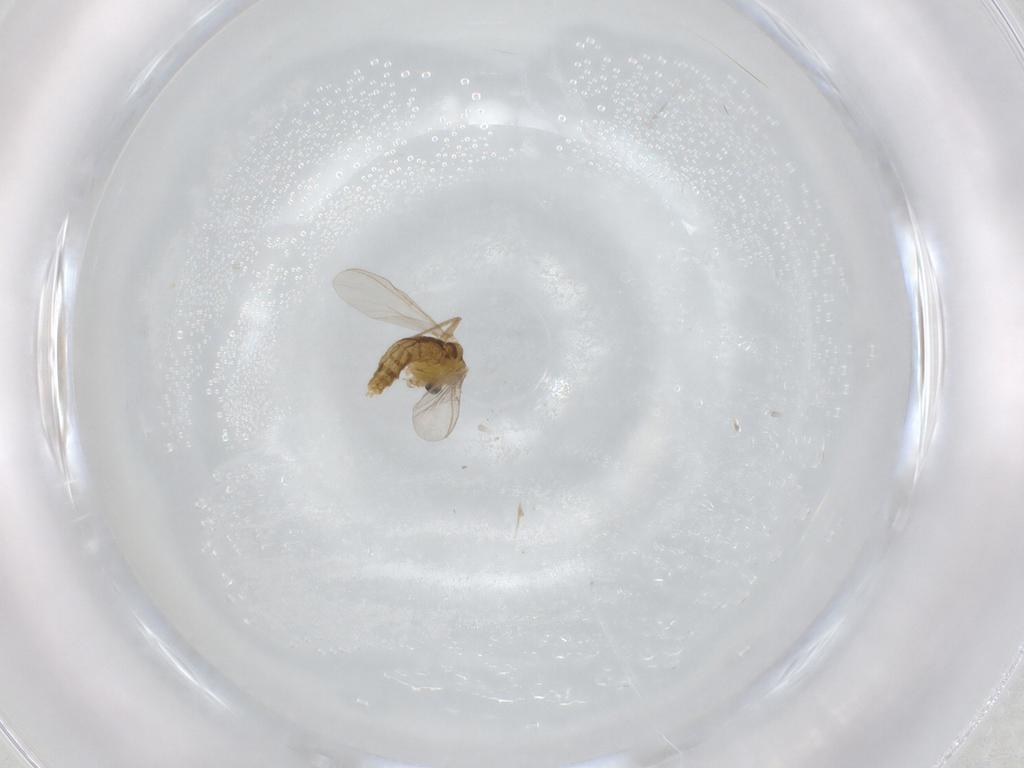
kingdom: Animalia
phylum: Arthropoda
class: Insecta
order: Diptera
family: Chironomidae
